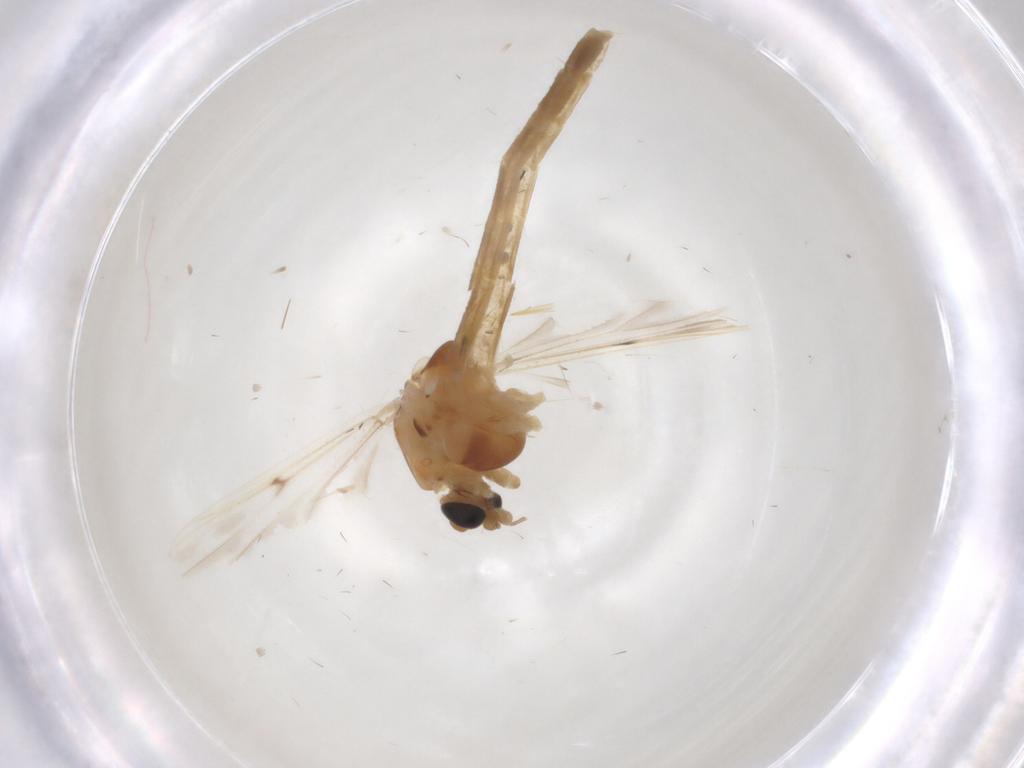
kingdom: Animalia
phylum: Arthropoda
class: Insecta
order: Diptera
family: Chironomidae
